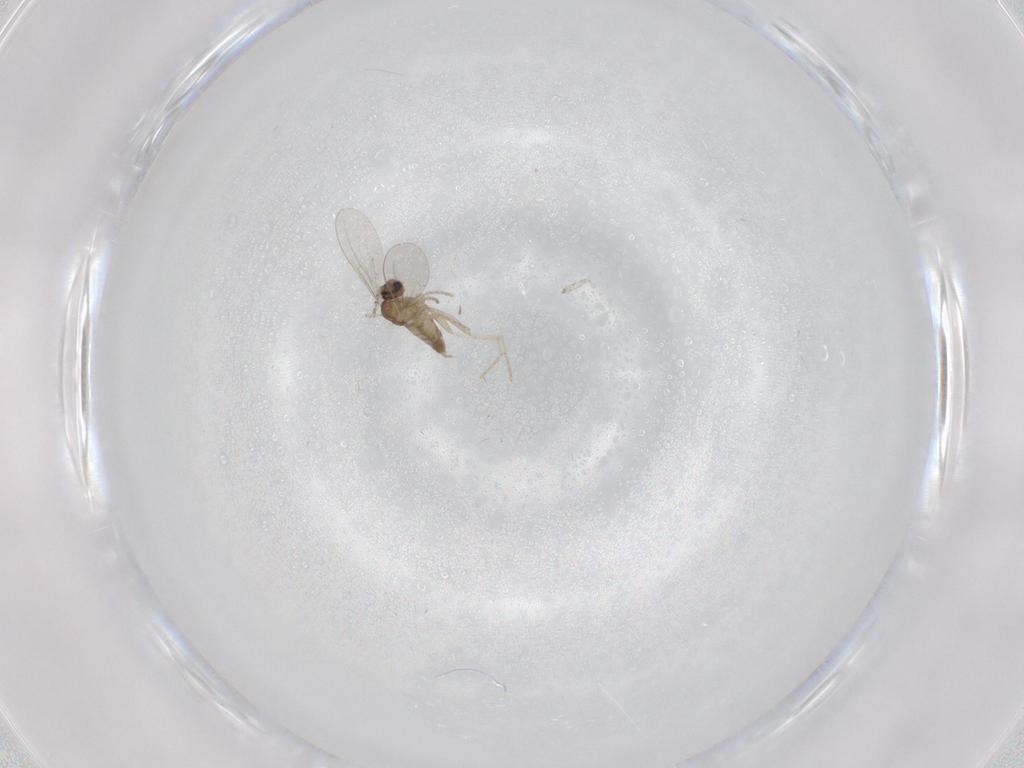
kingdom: Animalia
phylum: Arthropoda
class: Insecta
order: Diptera
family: Cecidomyiidae
